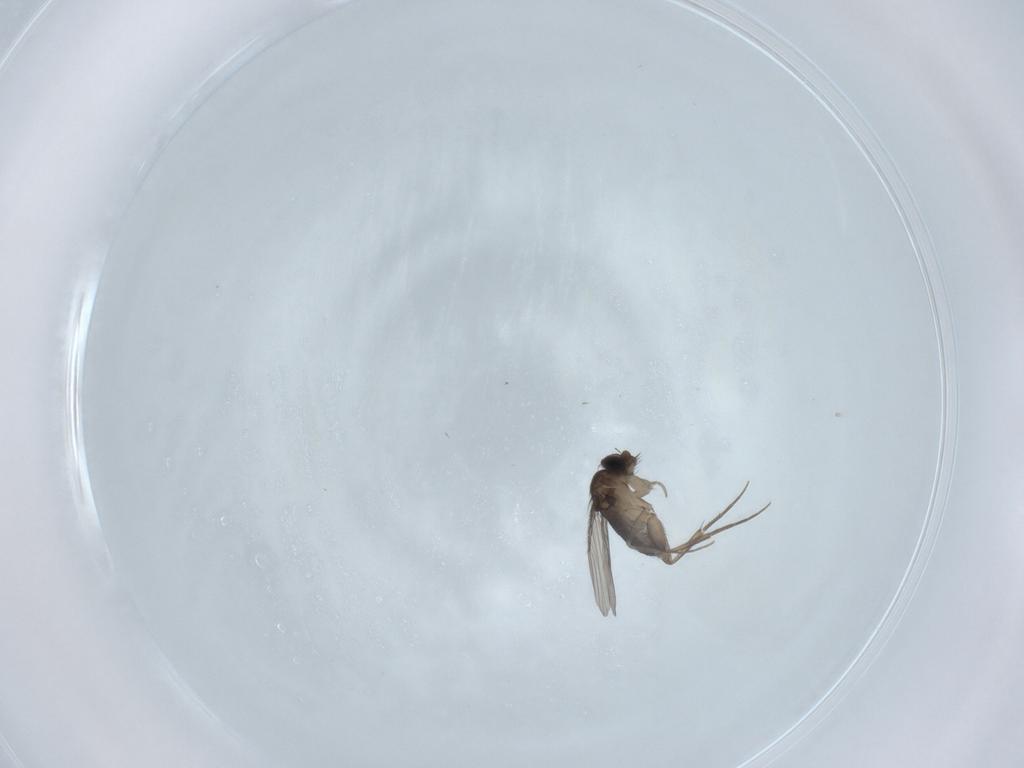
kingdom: Animalia
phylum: Arthropoda
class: Insecta
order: Diptera
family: Phoridae
